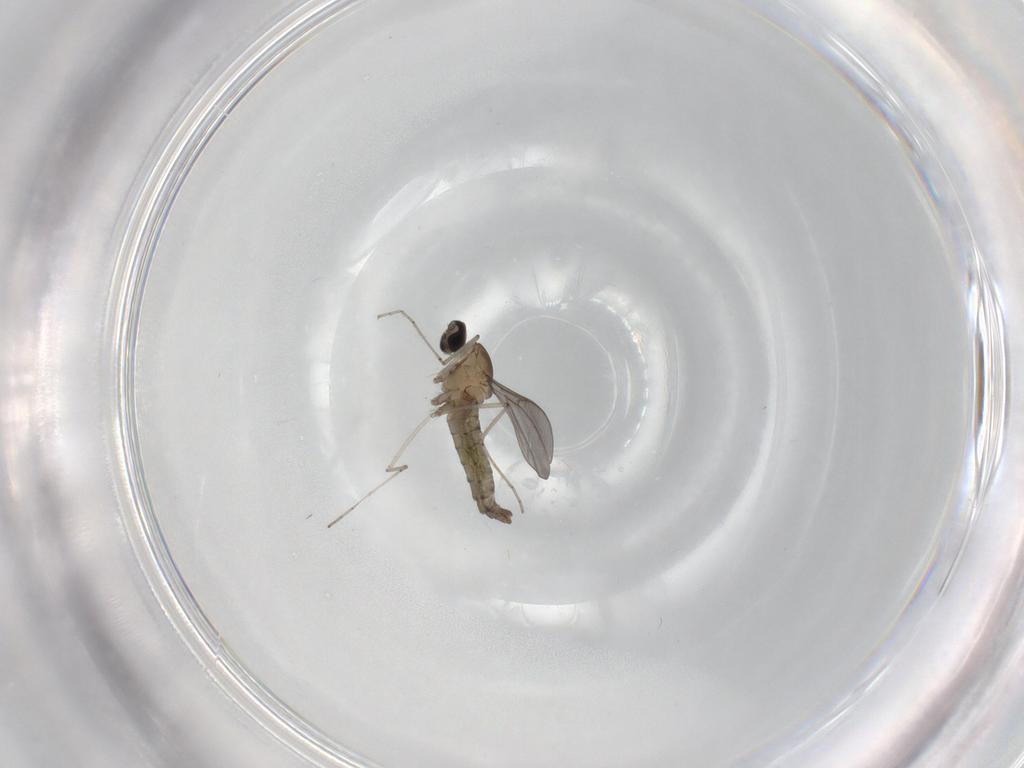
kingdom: Animalia
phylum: Arthropoda
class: Insecta
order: Diptera
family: Cecidomyiidae
